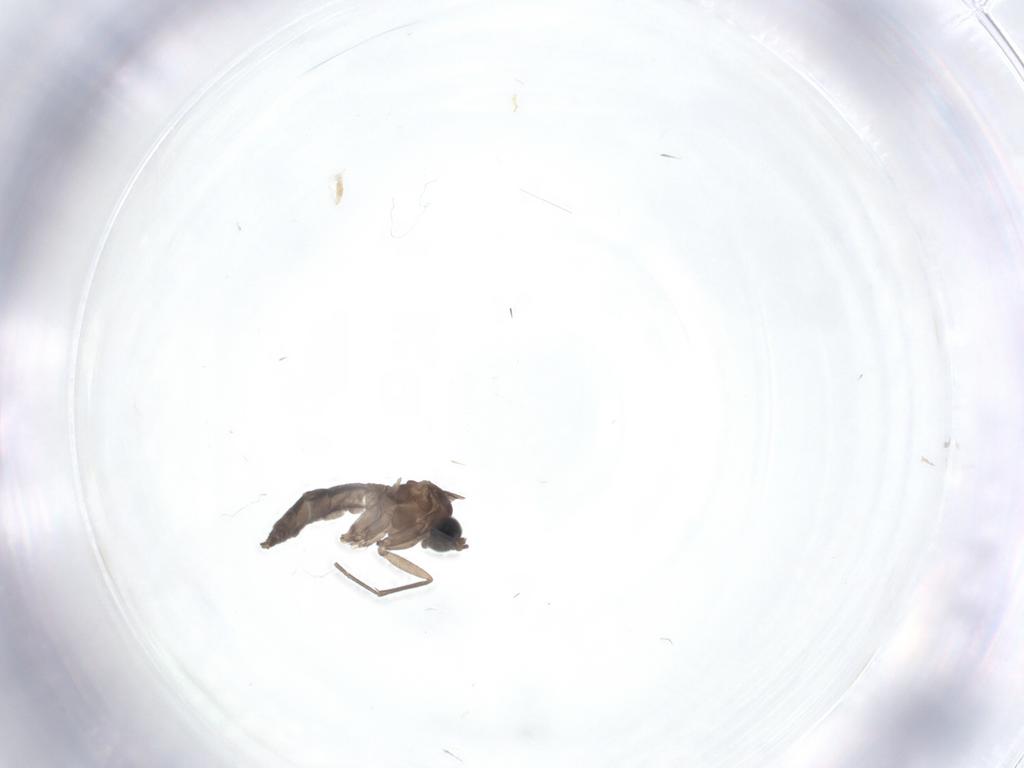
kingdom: Animalia
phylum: Arthropoda
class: Insecta
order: Diptera
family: Sciaridae
